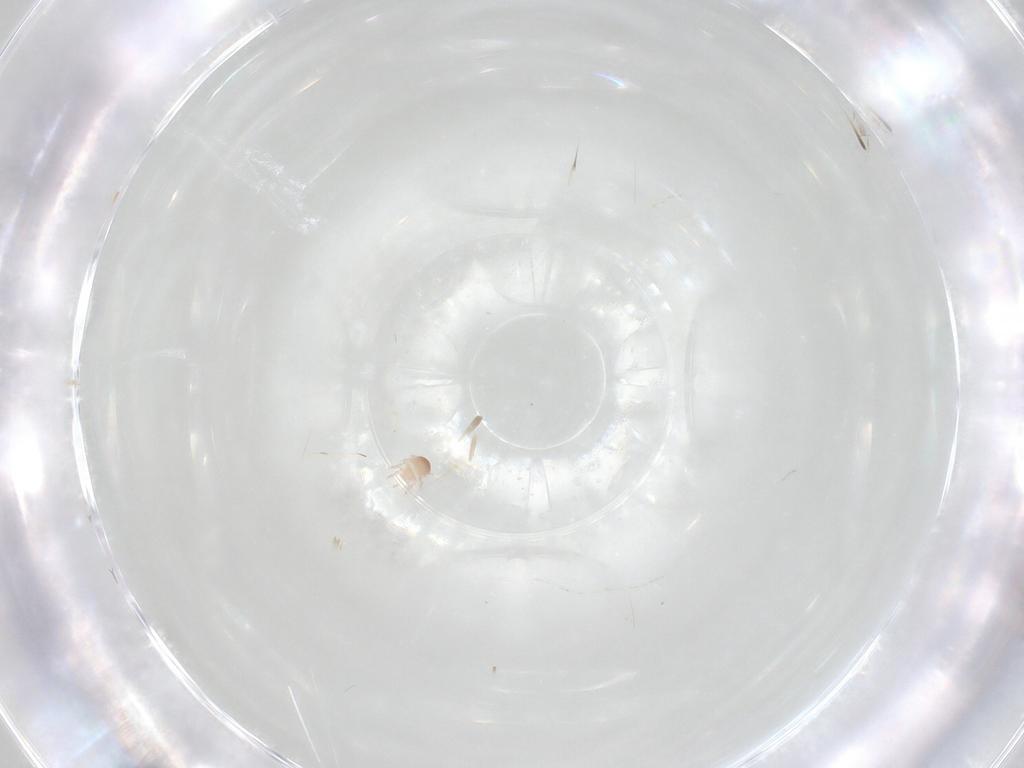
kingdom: Animalia
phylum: Arthropoda
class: Insecta
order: Diptera
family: Cecidomyiidae
